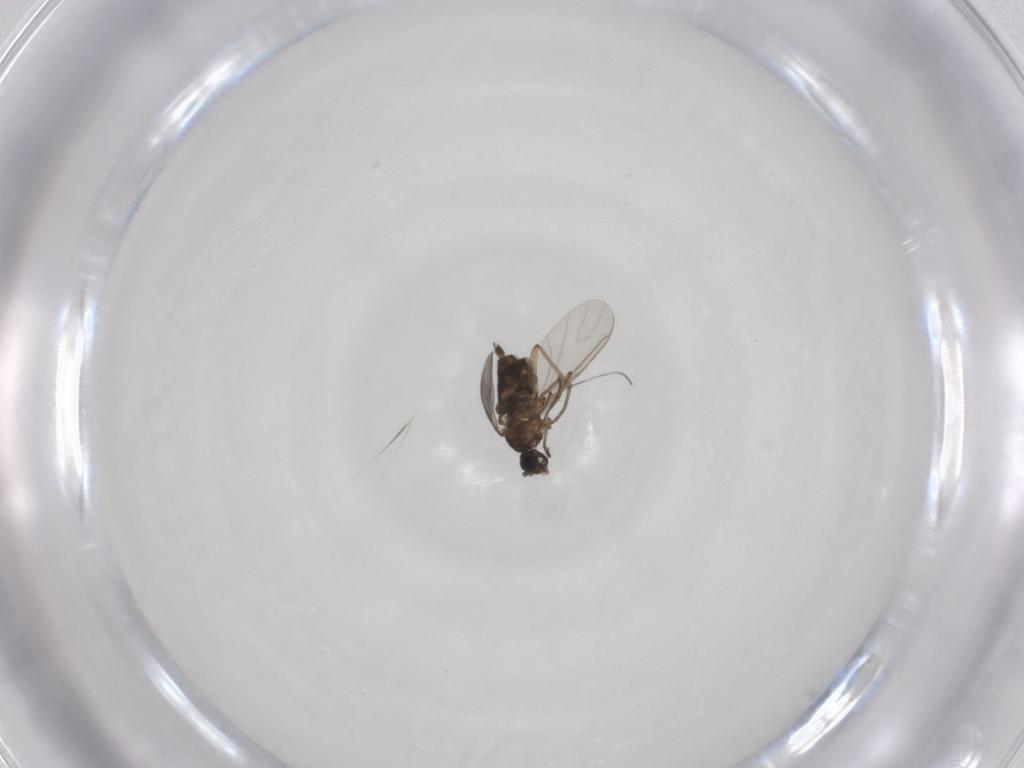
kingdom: Animalia
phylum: Arthropoda
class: Insecta
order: Diptera
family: Sciaridae
